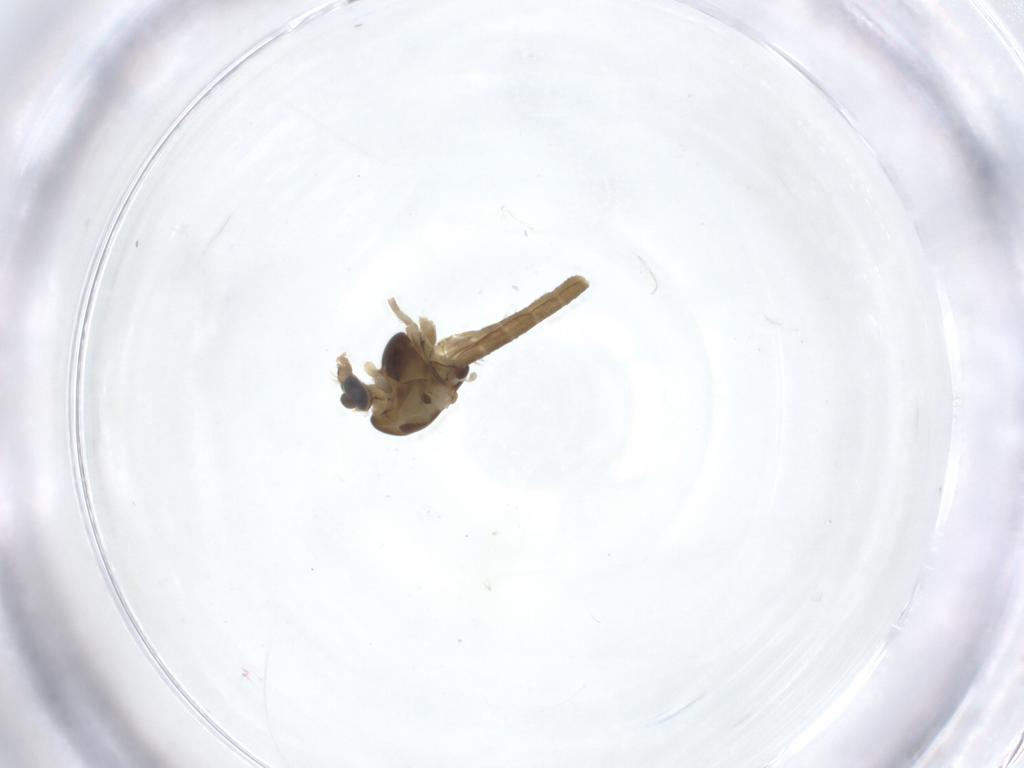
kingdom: Animalia
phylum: Arthropoda
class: Insecta
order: Diptera
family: Chironomidae
